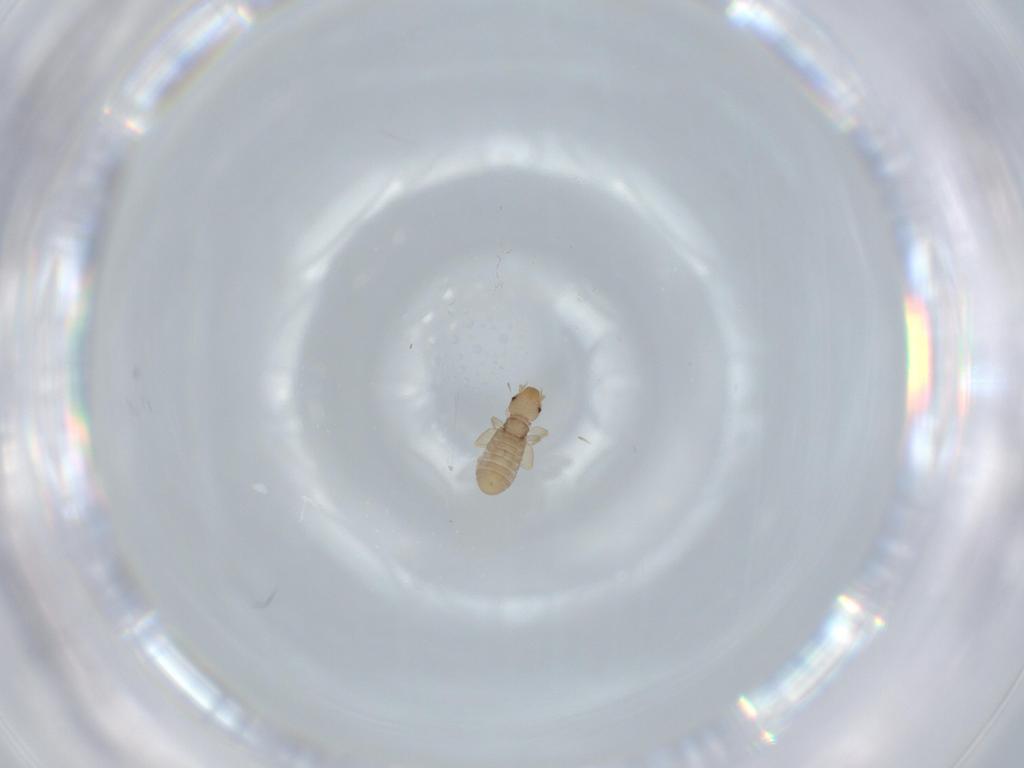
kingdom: Animalia
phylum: Arthropoda
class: Insecta
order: Psocodea
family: Liposcelididae
